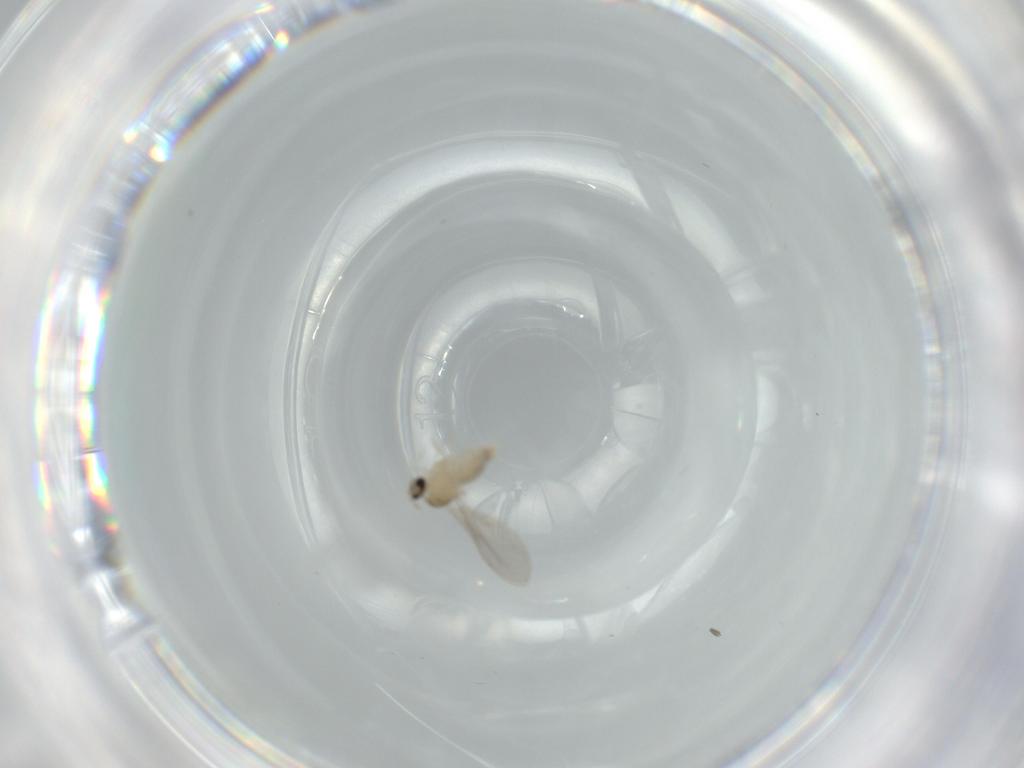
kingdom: Animalia
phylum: Arthropoda
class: Insecta
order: Diptera
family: Cecidomyiidae
